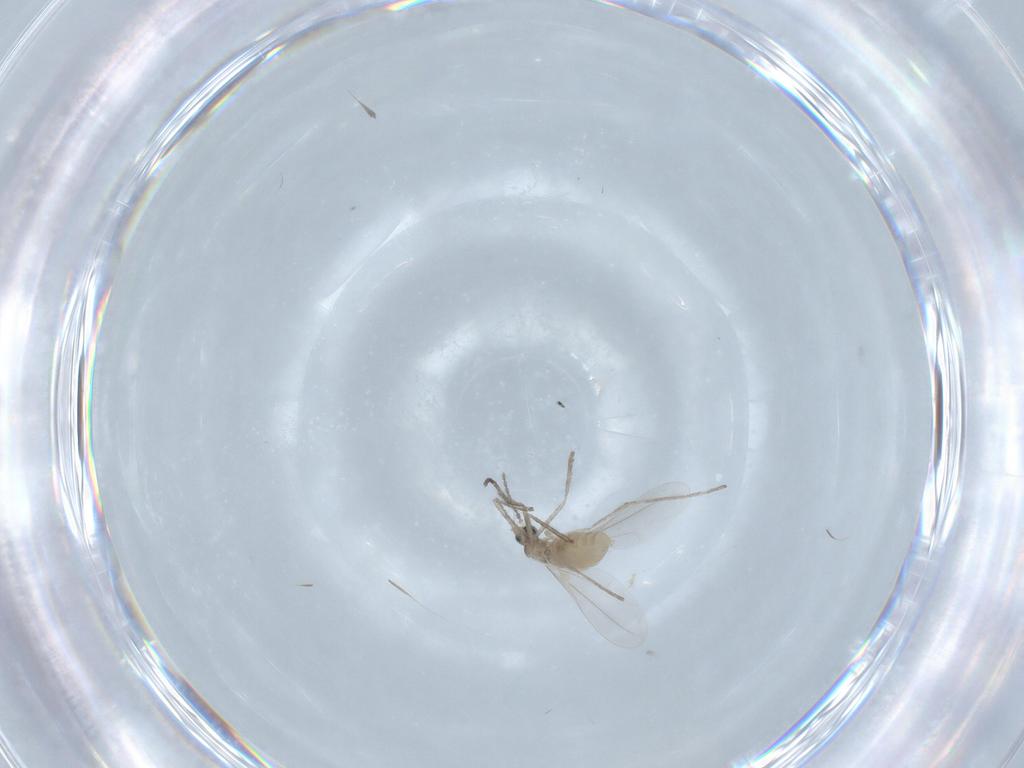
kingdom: Animalia
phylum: Arthropoda
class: Insecta
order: Diptera
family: Cecidomyiidae
